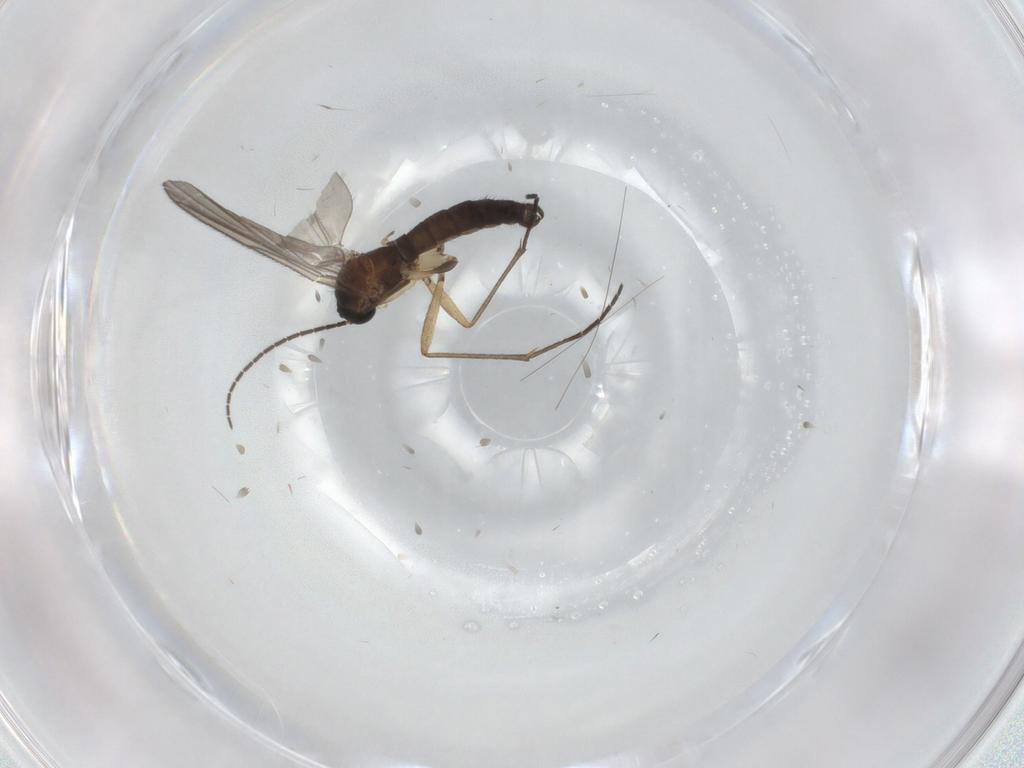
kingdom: Animalia
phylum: Arthropoda
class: Insecta
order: Diptera
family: Sciaridae
